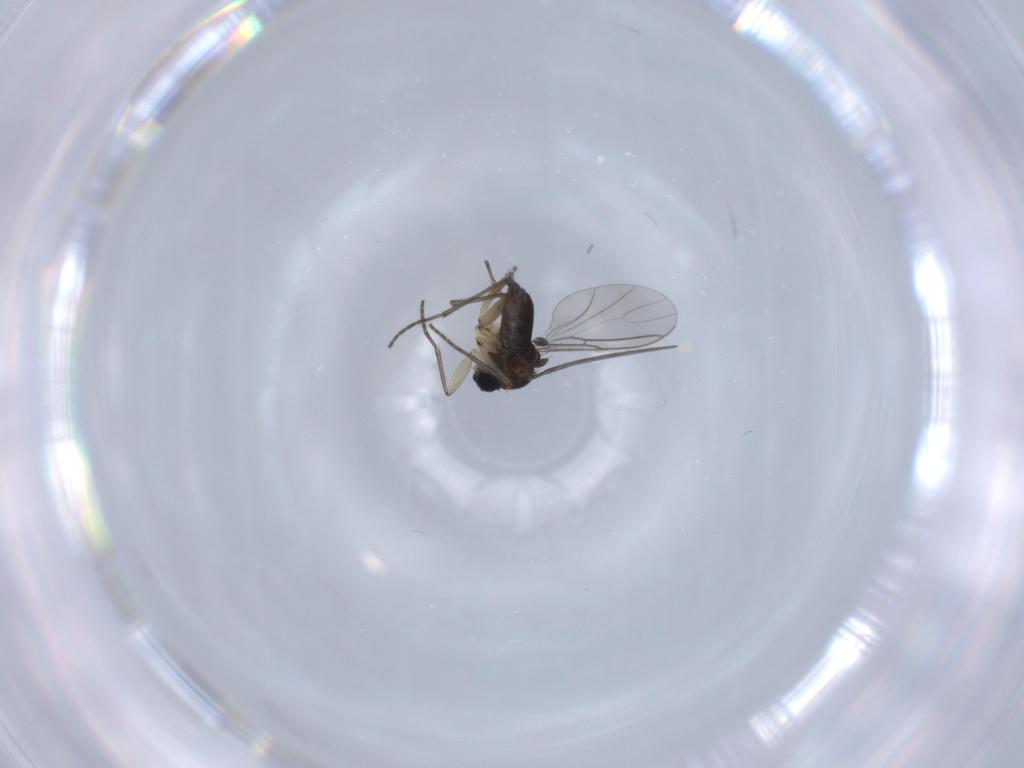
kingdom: Animalia
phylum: Arthropoda
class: Insecta
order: Diptera
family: Sciaridae
